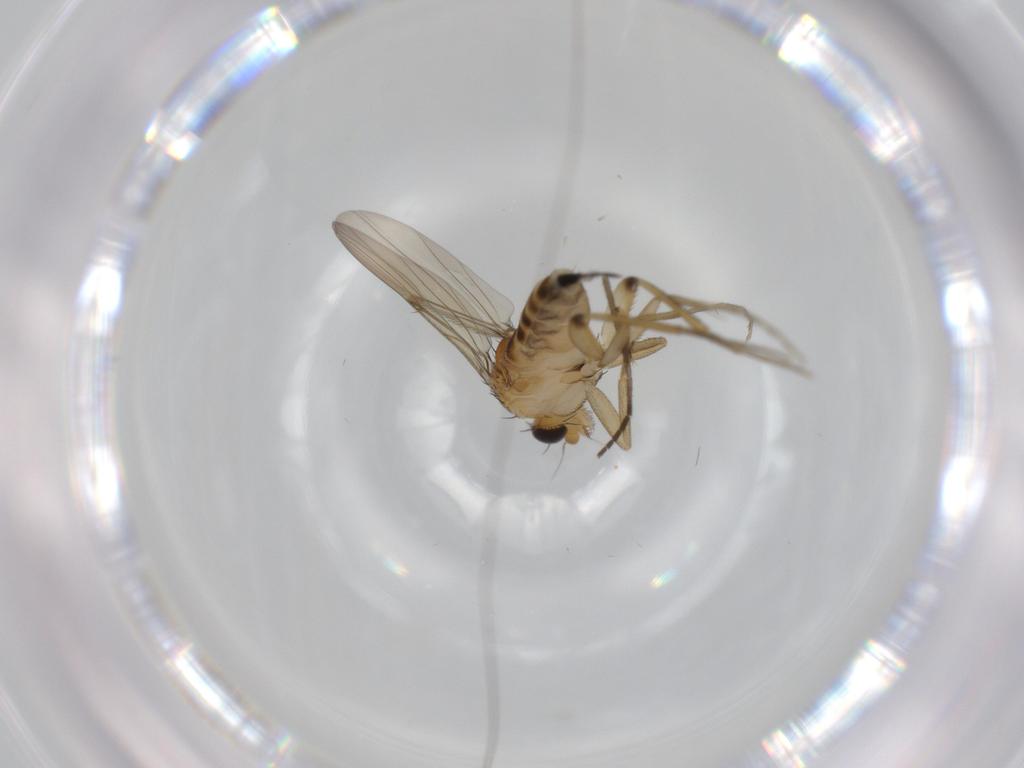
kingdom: Animalia
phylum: Arthropoda
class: Insecta
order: Diptera
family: Phoridae
